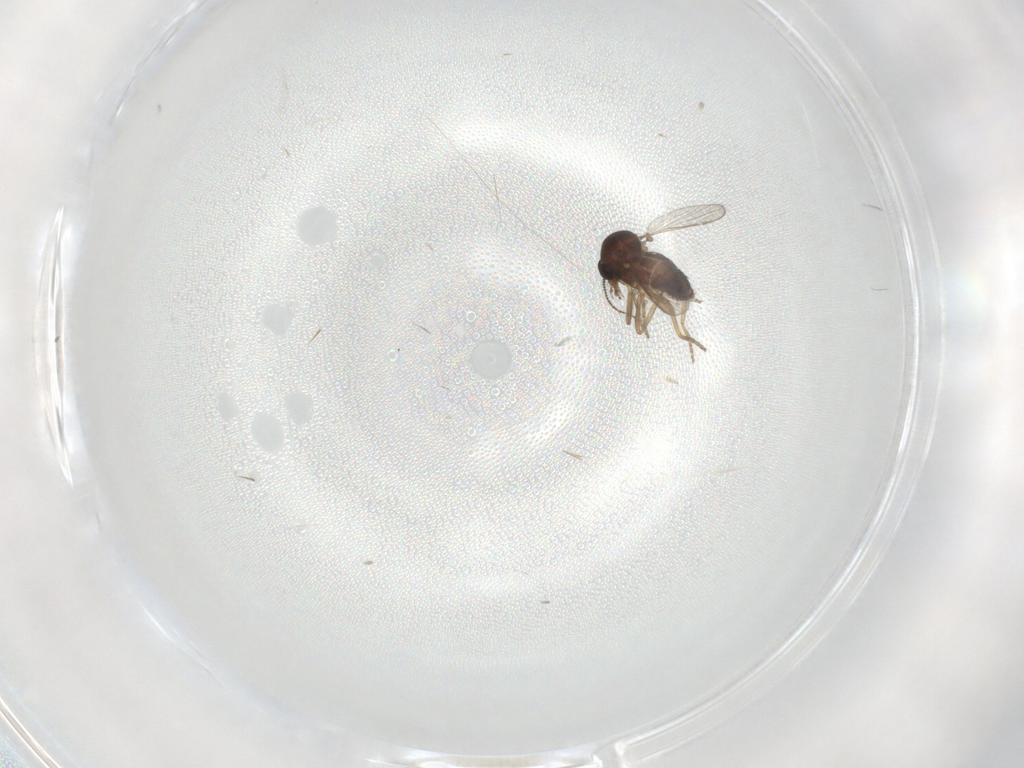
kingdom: Animalia
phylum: Arthropoda
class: Insecta
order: Diptera
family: Ceratopogonidae
